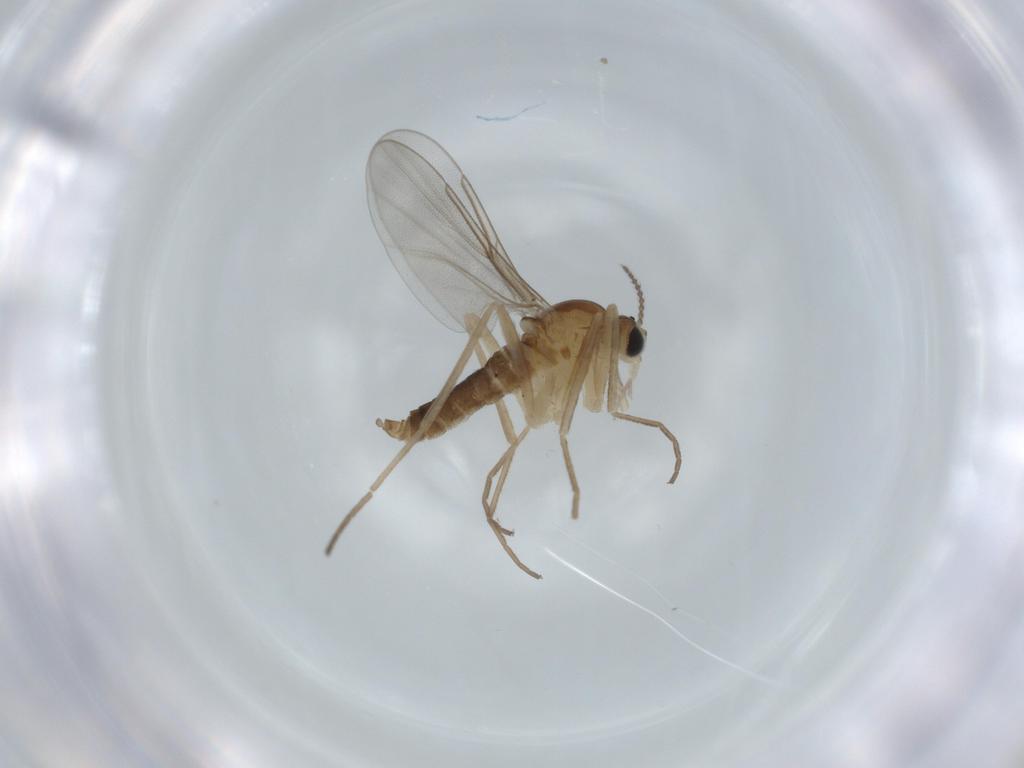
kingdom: Animalia
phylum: Arthropoda
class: Insecta
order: Diptera
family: Cecidomyiidae
